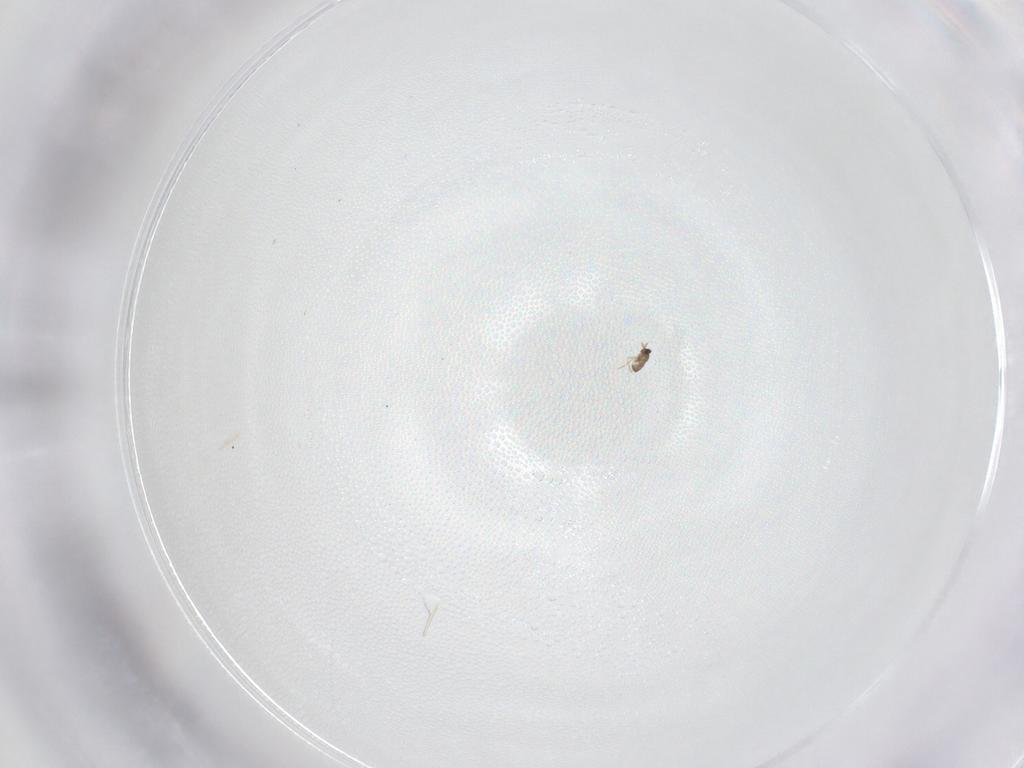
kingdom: Animalia
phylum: Arthropoda
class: Insecta
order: Hymenoptera
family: Mymaridae
